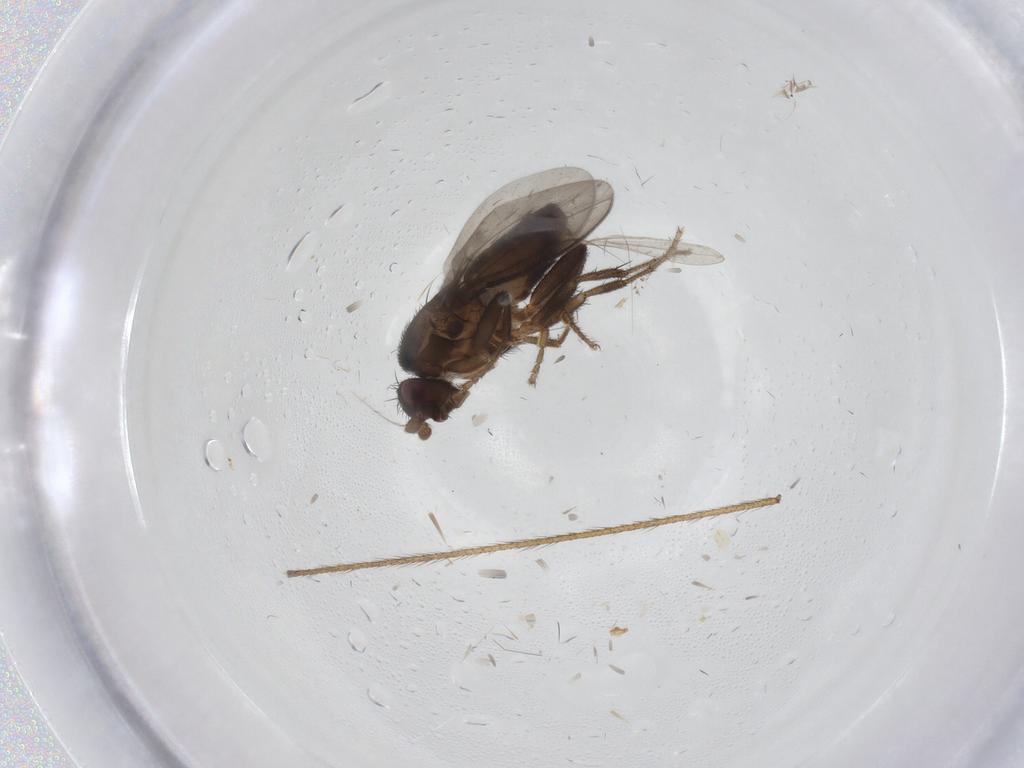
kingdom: Animalia
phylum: Arthropoda
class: Insecta
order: Diptera
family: Limoniidae
